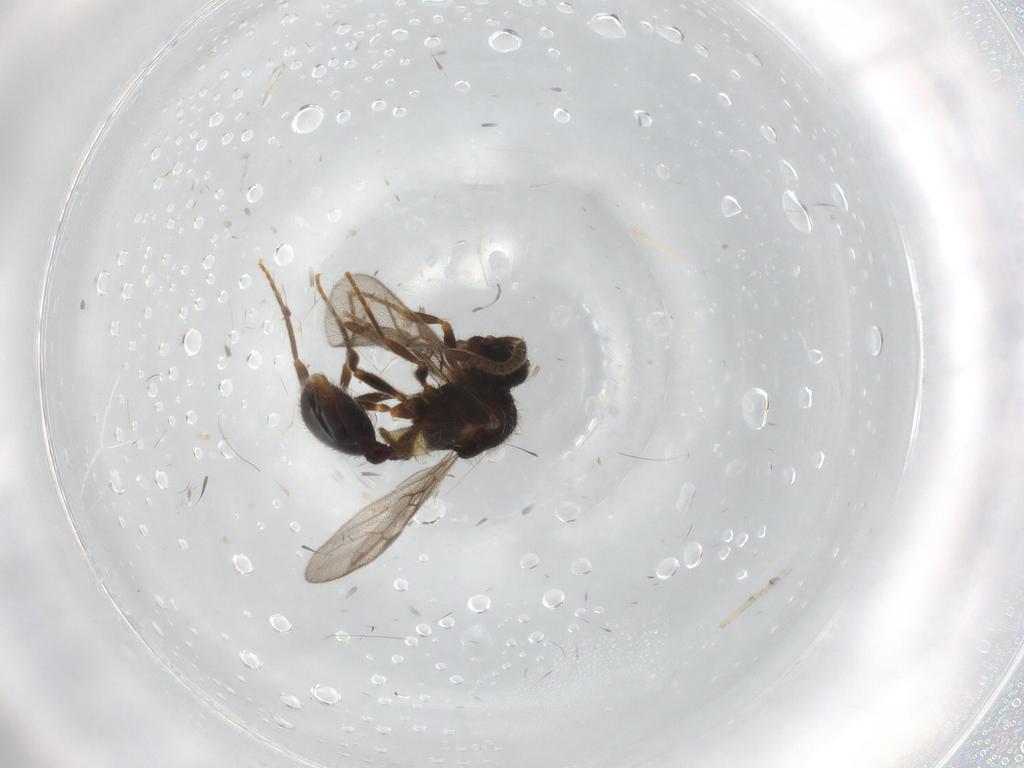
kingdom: Animalia
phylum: Arthropoda
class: Insecta
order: Hymenoptera
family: Formicidae
